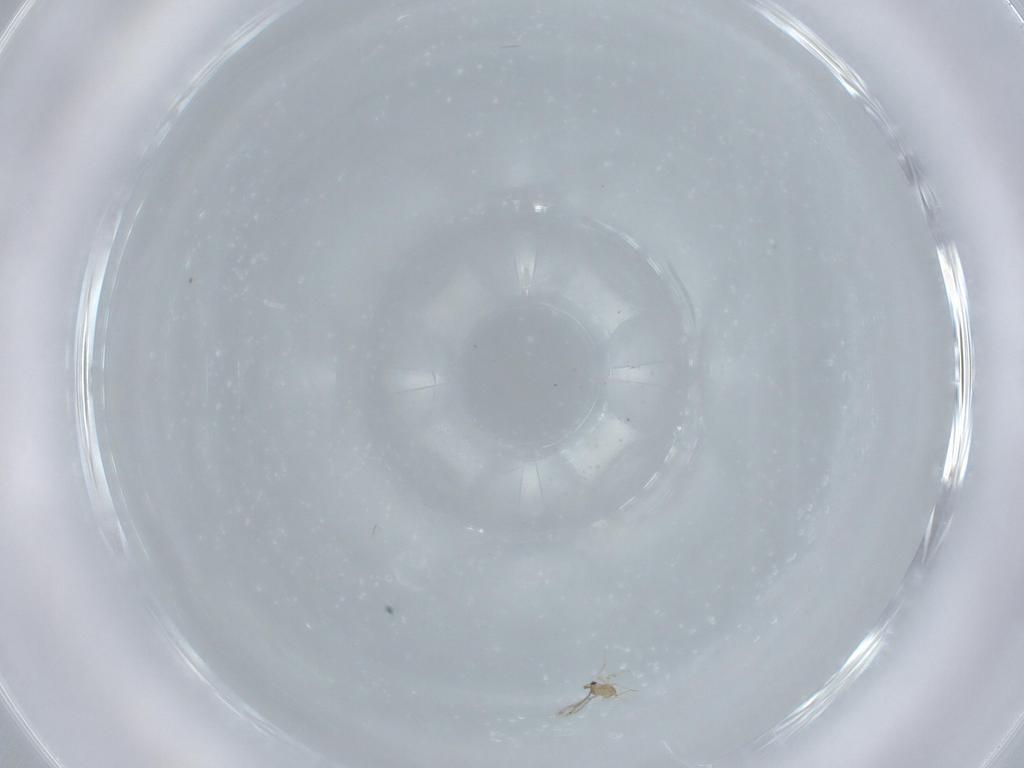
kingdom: Animalia
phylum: Arthropoda
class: Insecta
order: Hymenoptera
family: Mymaridae
